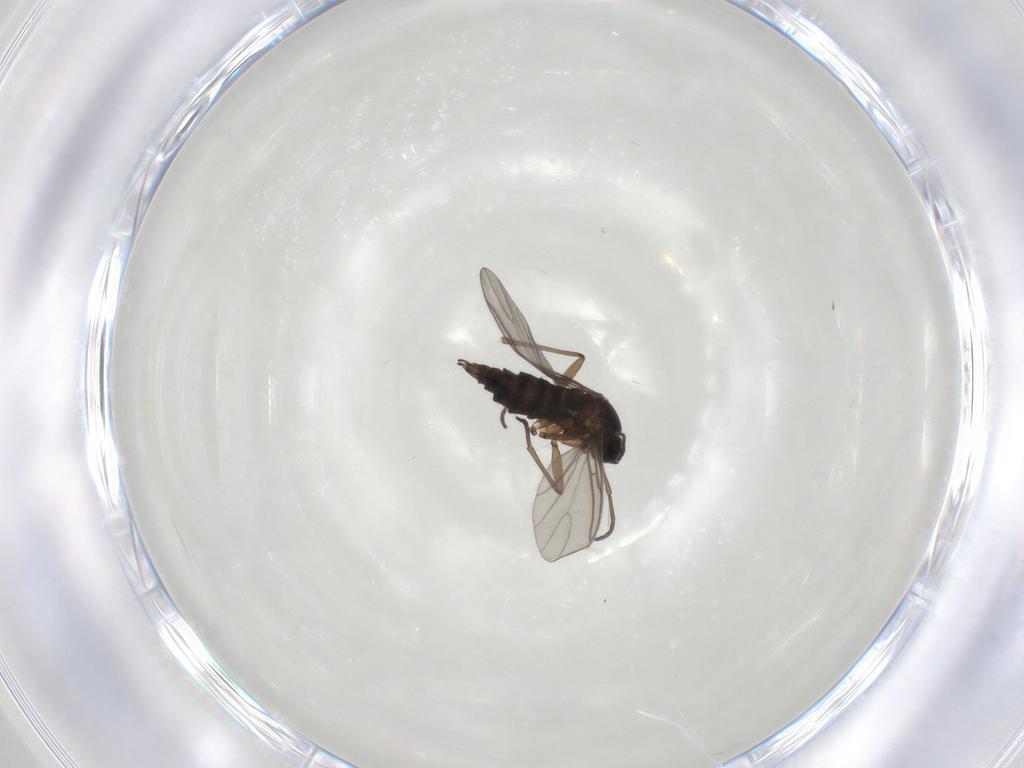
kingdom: Animalia
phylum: Arthropoda
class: Insecta
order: Diptera
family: Sciaridae
